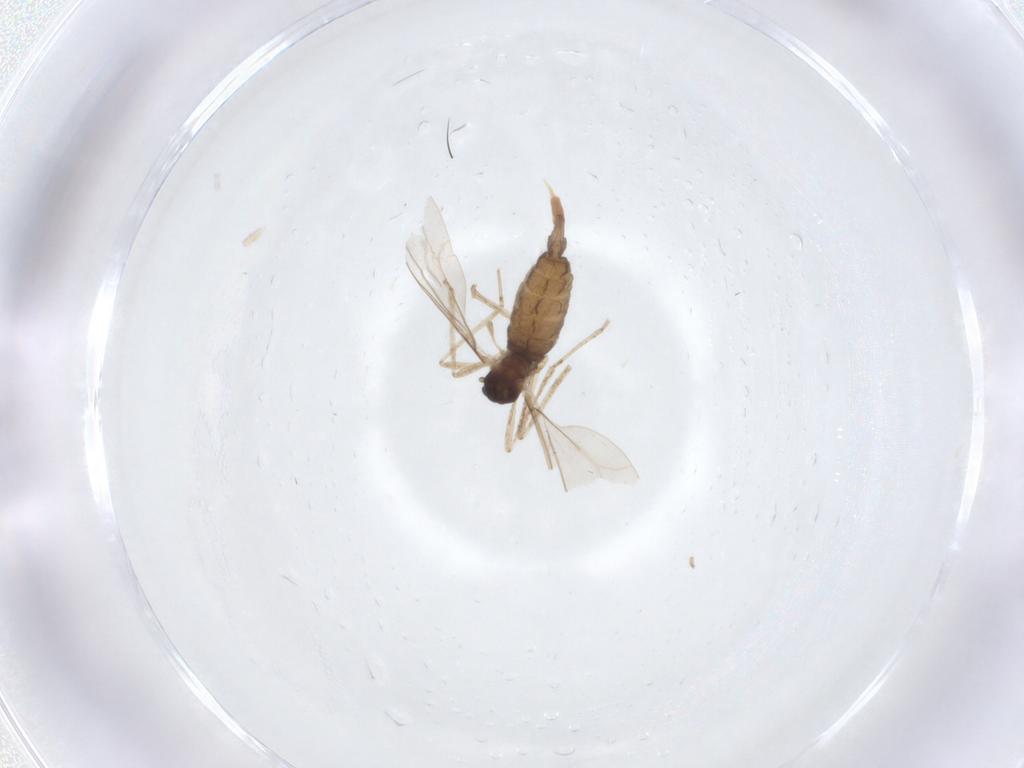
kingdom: Animalia
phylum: Arthropoda
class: Insecta
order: Diptera
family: Cecidomyiidae
